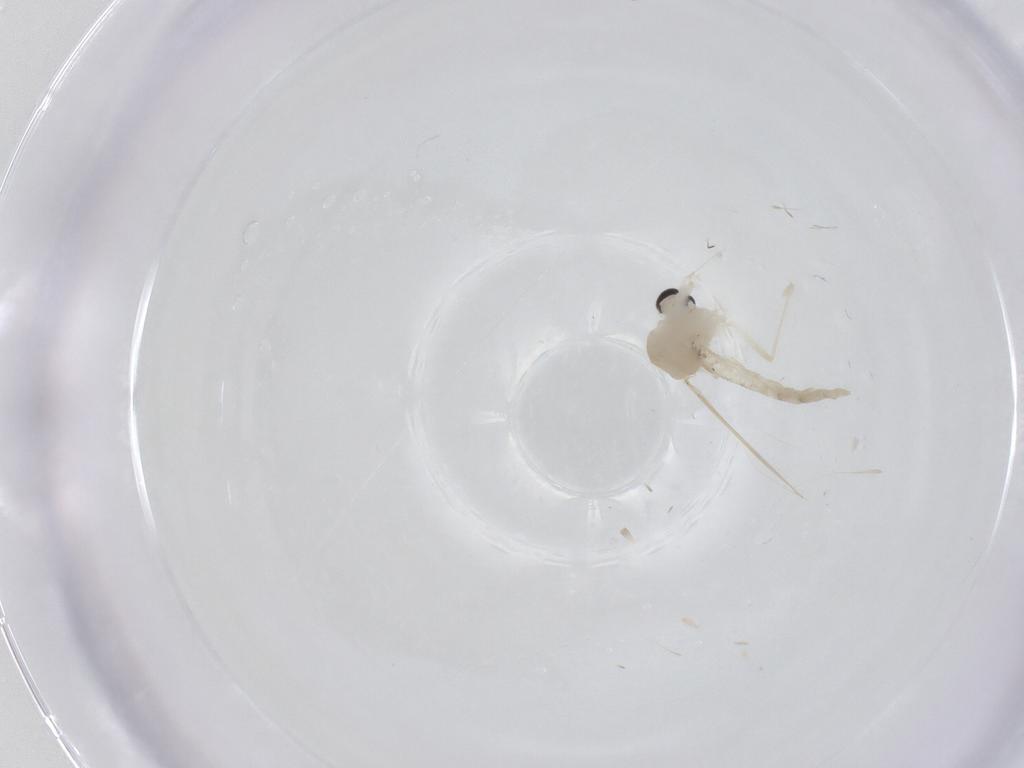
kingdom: Animalia
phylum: Arthropoda
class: Insecta
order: Diptera
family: Chironomidae
